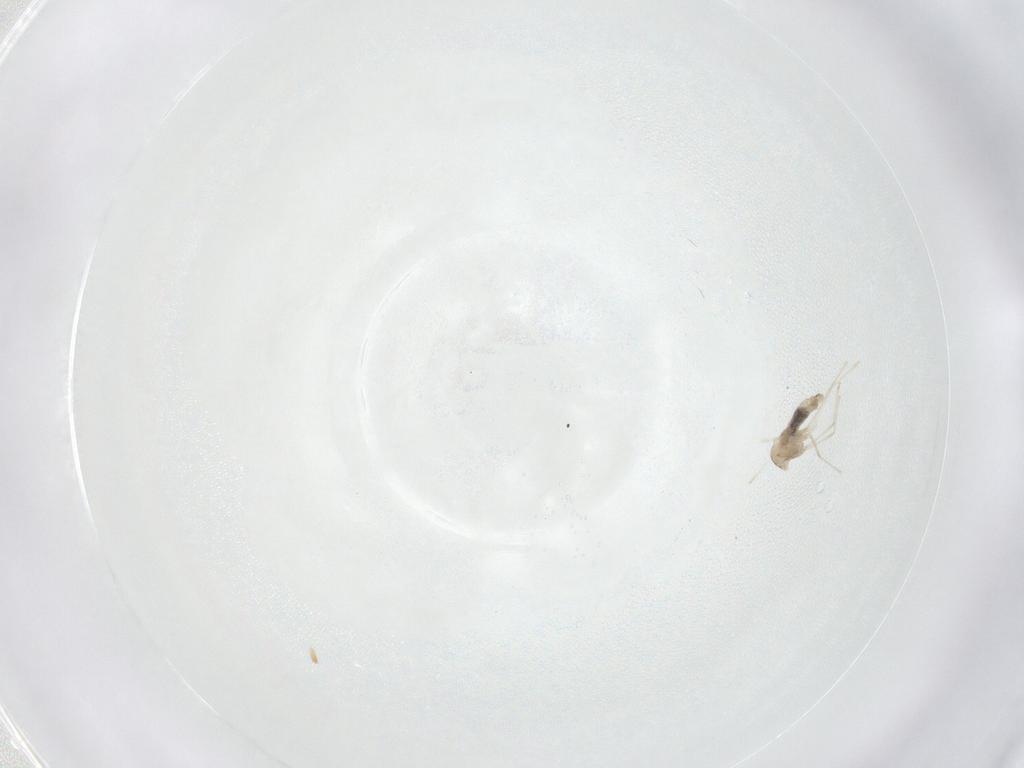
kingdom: Animalia
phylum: Arthropoda
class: Insecta
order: Diptera
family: Cecidomyiidae
